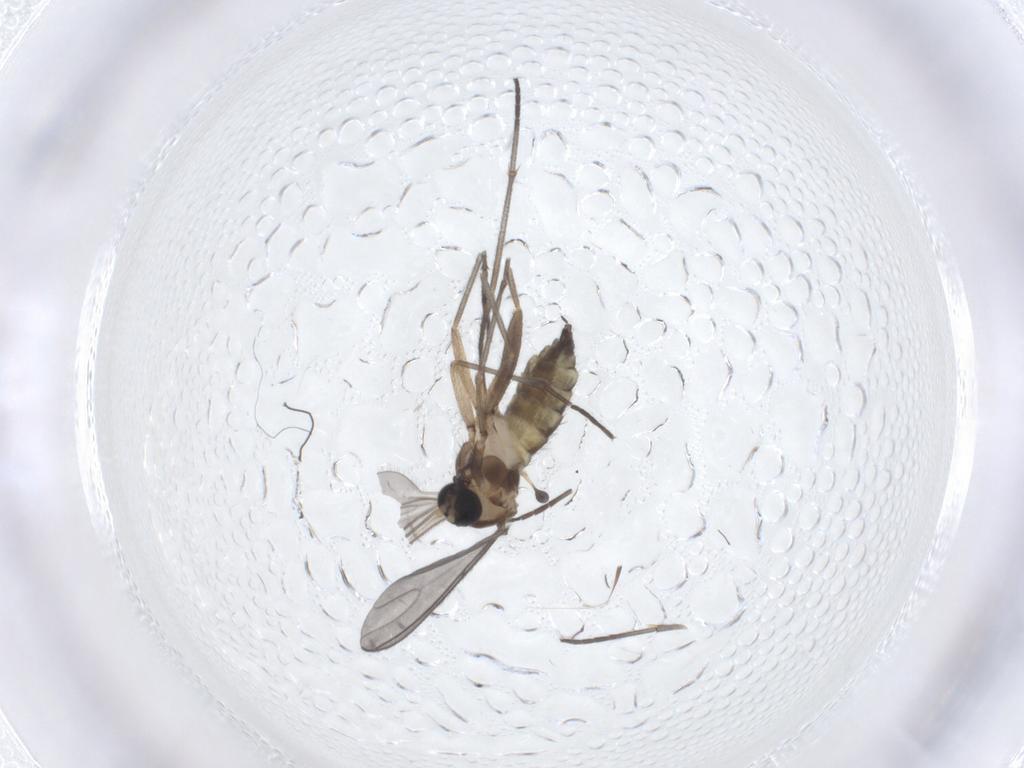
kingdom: Animalia
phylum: Arthropoda
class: Insecta
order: Diptera
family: Sciaridae
